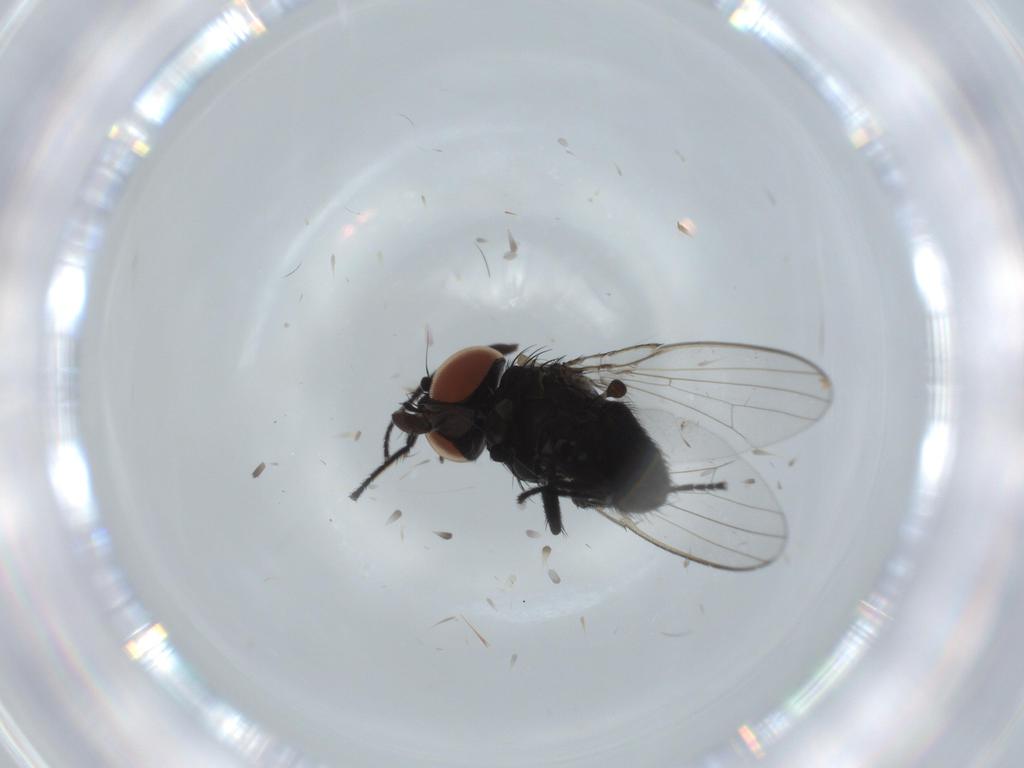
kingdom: Animalia
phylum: Arthropoda
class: Insecta
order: Diptera
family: Milichiidae
